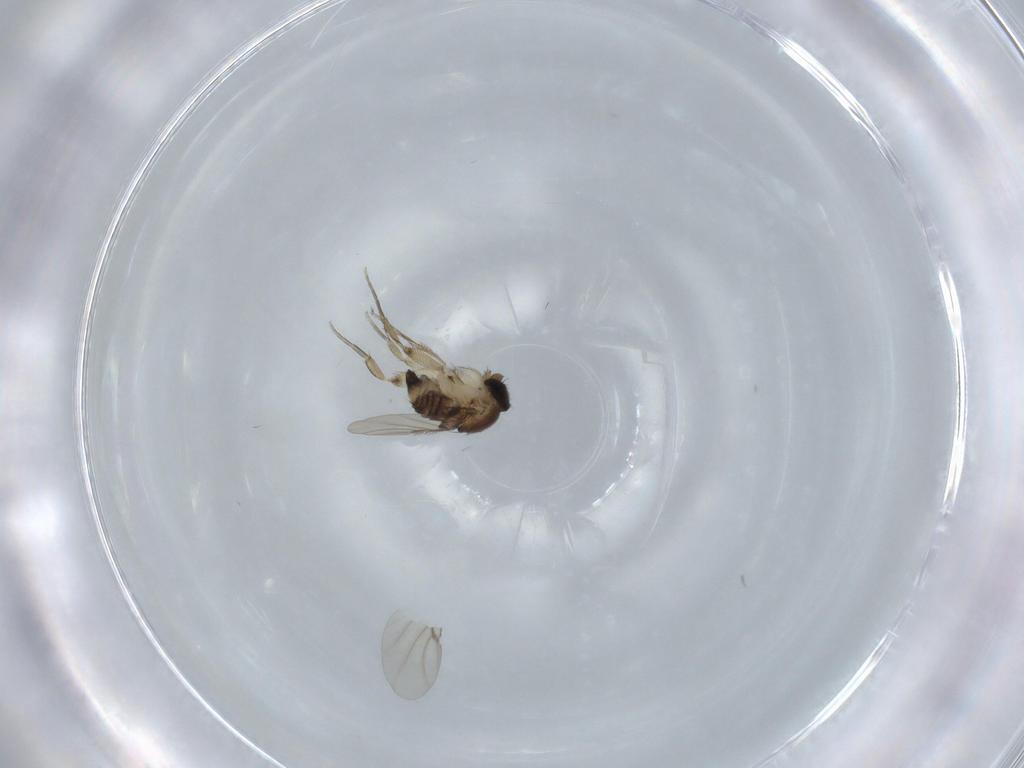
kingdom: Animalia
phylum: Arthropoda
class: Insecta
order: Diptera
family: Phoridae
